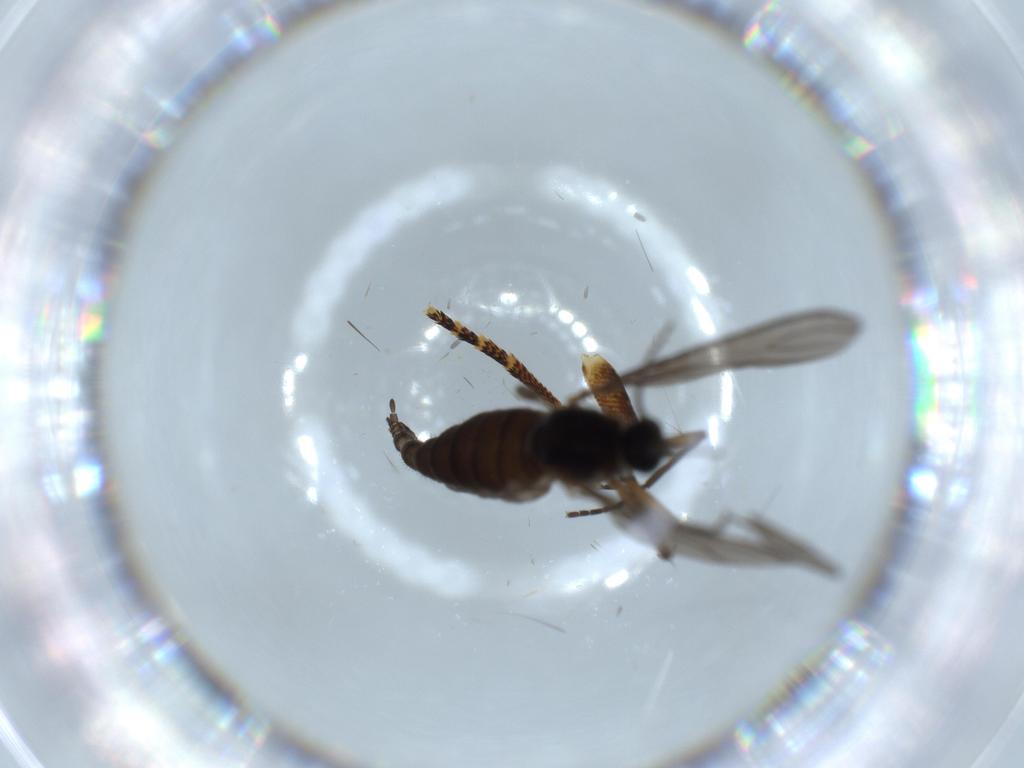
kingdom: Animalia
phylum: Arthropoda
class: Insecta
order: Diptera
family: Sciaridae
